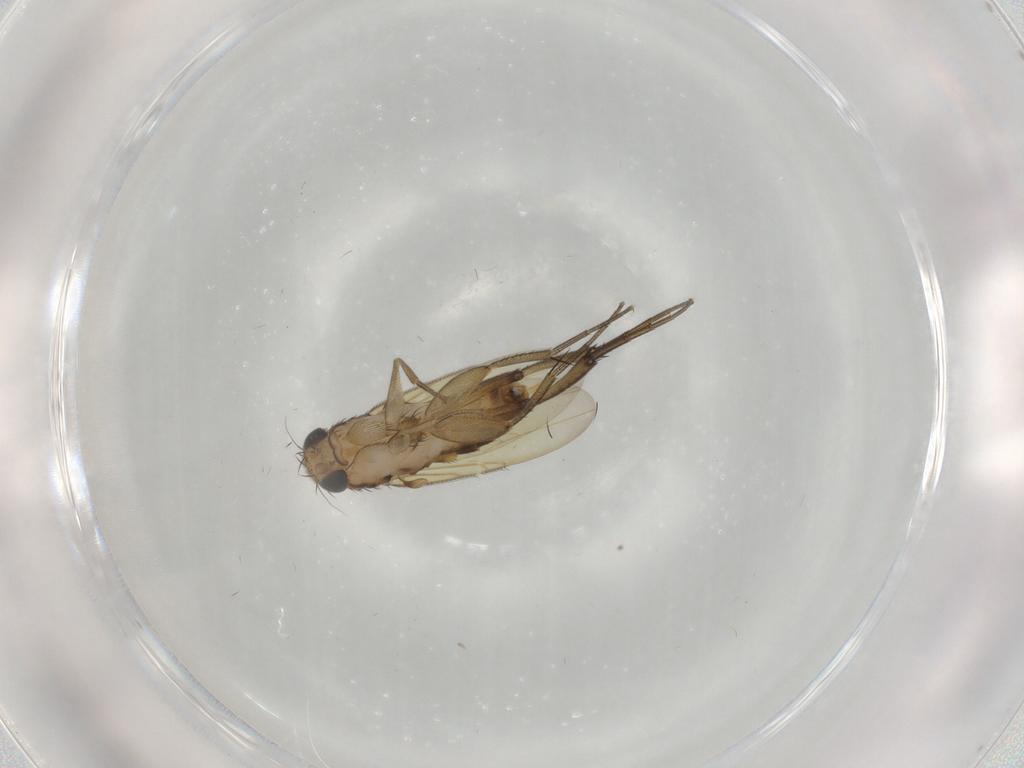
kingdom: Animalia
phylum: Arthropoda
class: Insecta
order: Diptera
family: Phoridae
